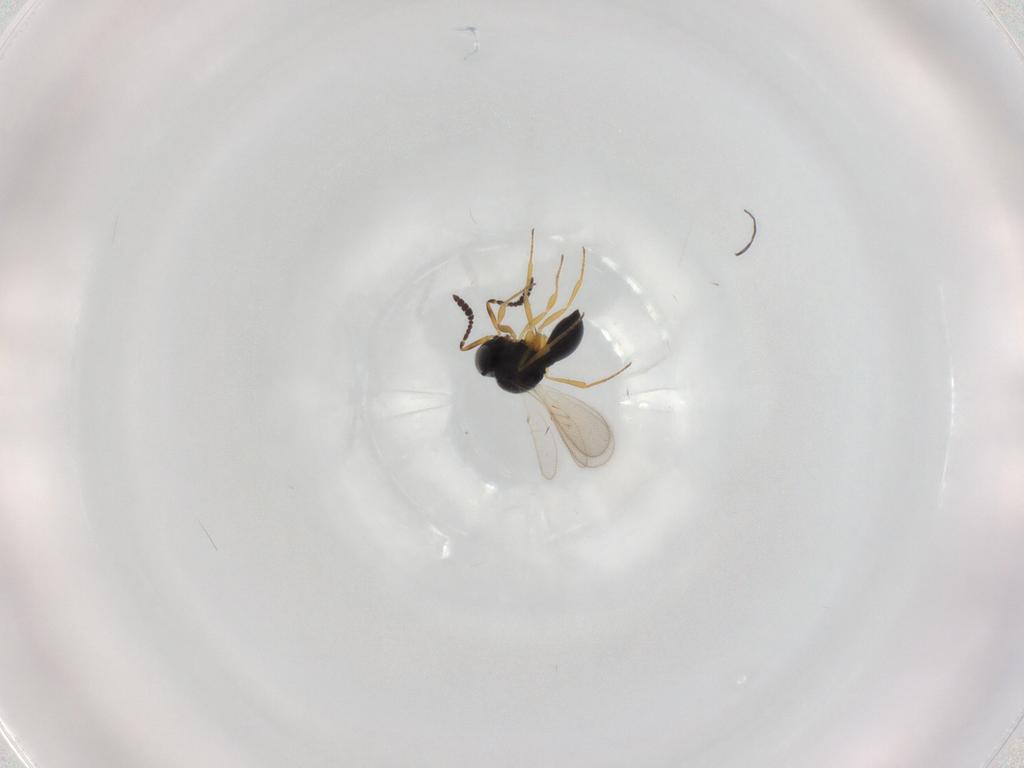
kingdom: Animalia
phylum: Arthropoda
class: Insecta
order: Hymenoptera
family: Scelionidae
